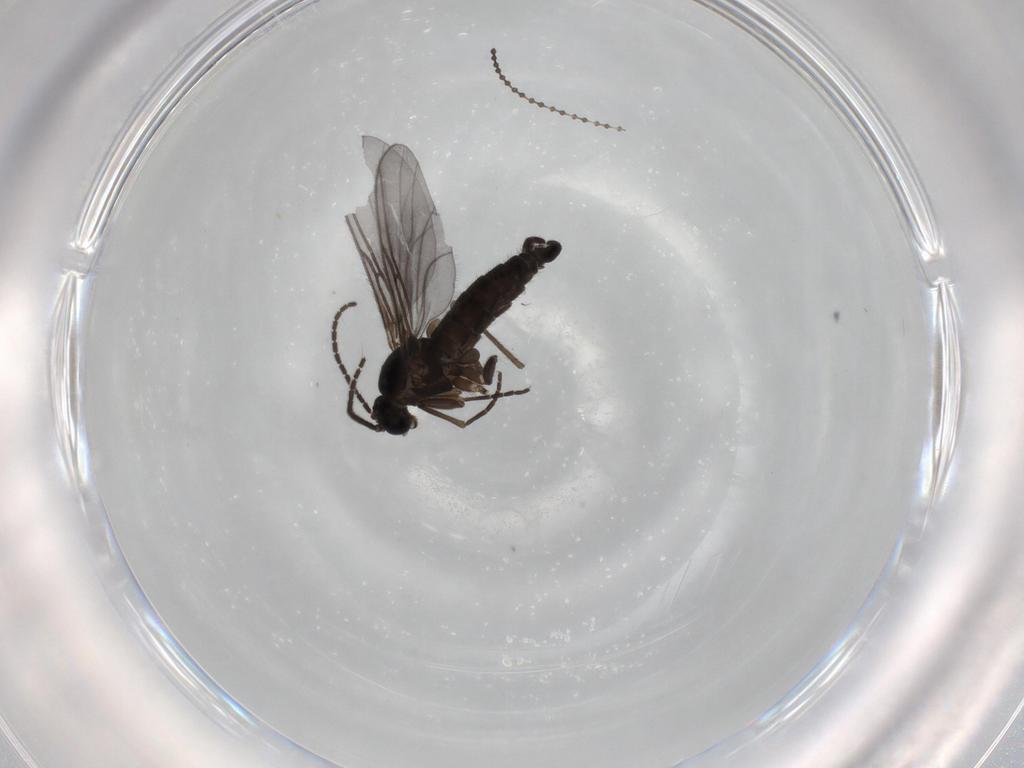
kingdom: Animalia
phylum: Arthropoda
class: Insecta
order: Diptera
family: Cecidomyiidae
